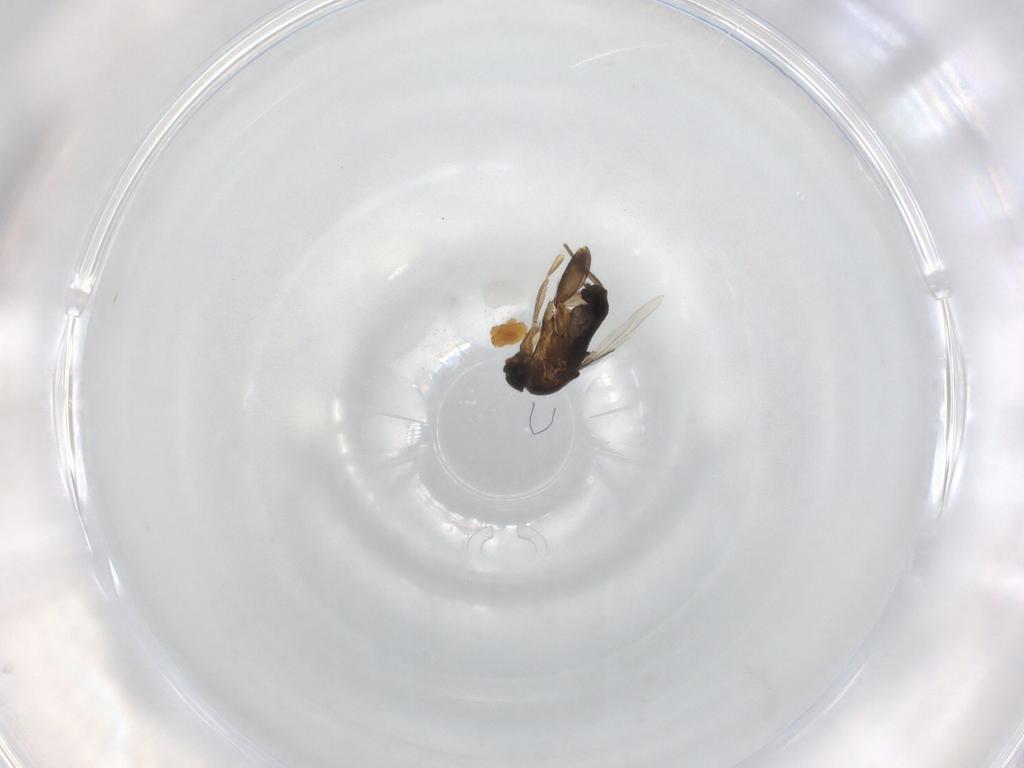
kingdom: Animalia
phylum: Arthropoda
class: Insecta
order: Diptera
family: Phoridae
